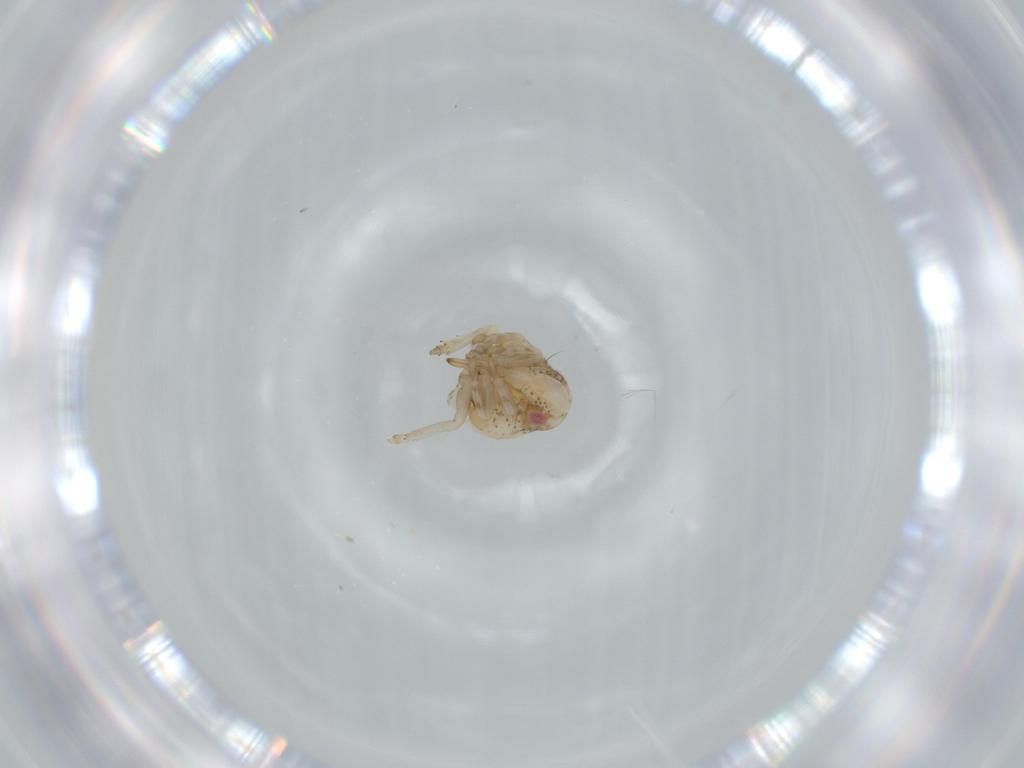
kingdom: Animalia
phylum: Arthropoda
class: Insecta
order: Hemiptera
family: Acanaloniidae
